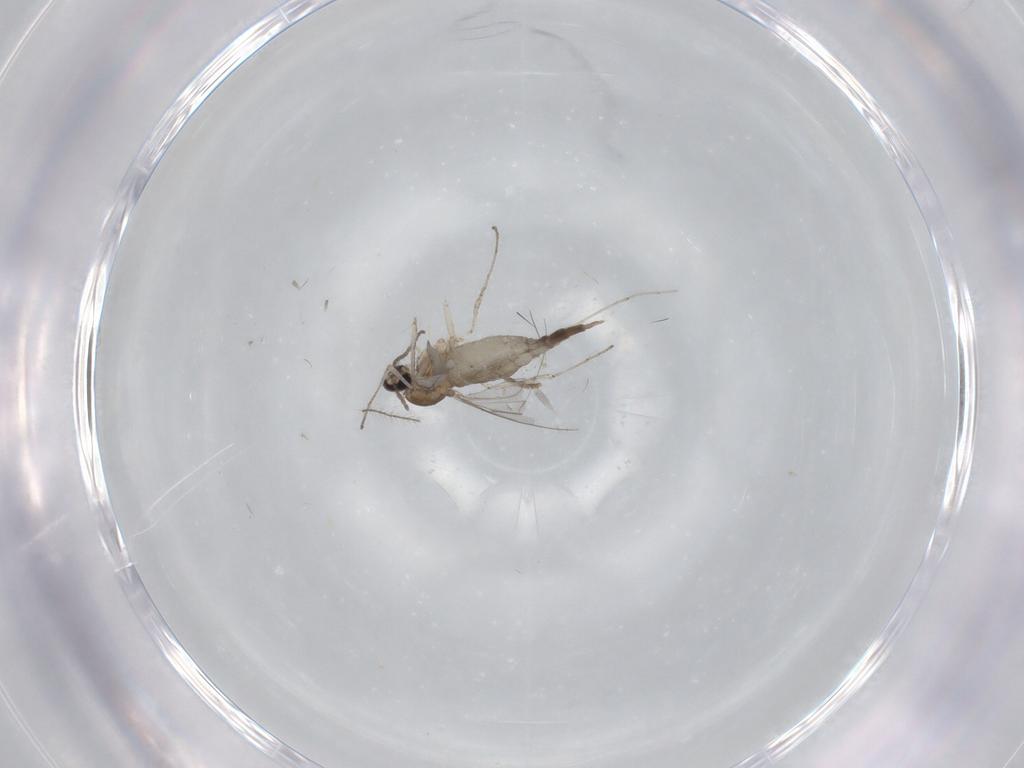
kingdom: Animalia
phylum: Arthropoda
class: Insecta
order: Diptera
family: Cecidomyiidae
